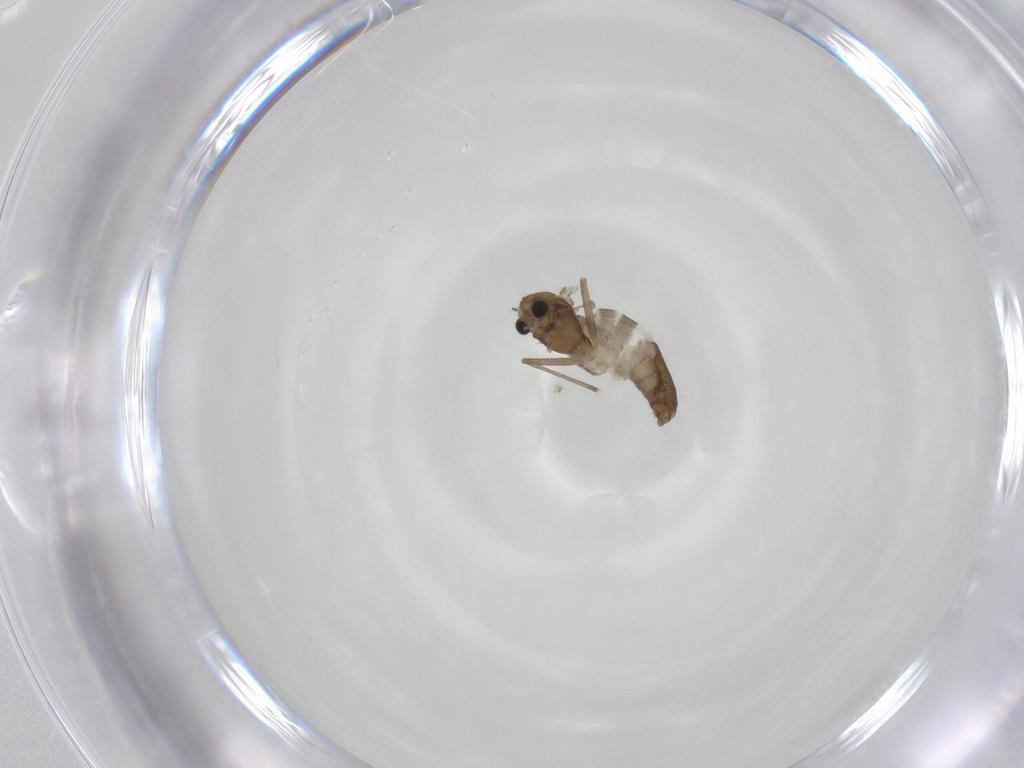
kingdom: Animalia
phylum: Arthropoda
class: Insecta
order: Diptera
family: Chironomidae
